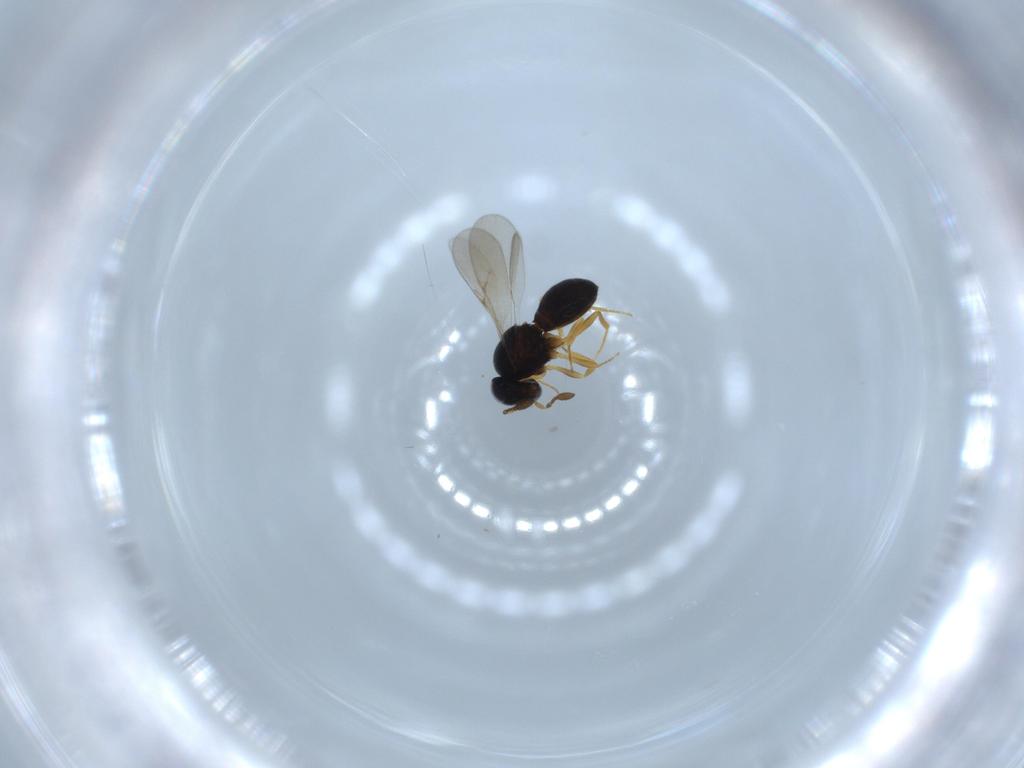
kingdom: Animalia
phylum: Arthropoda
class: Insecta
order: Hymenoptera
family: Scelionidae
